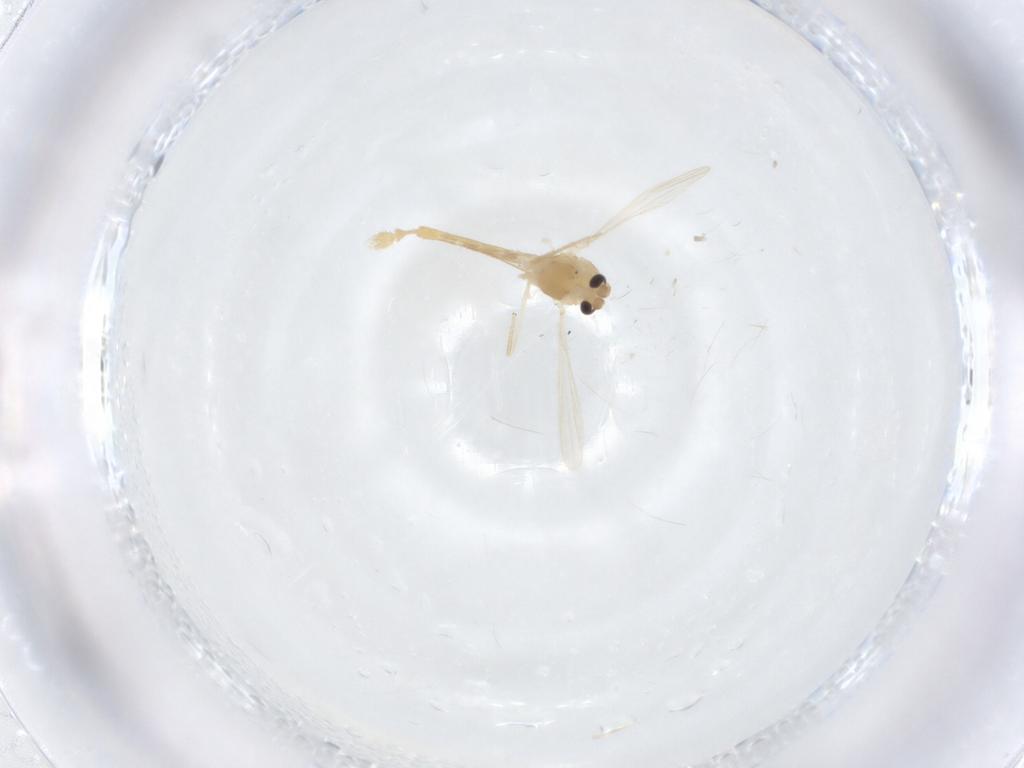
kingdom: Animalia
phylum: Arthropoda
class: Insecta
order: Diptera
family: Chironomidae
